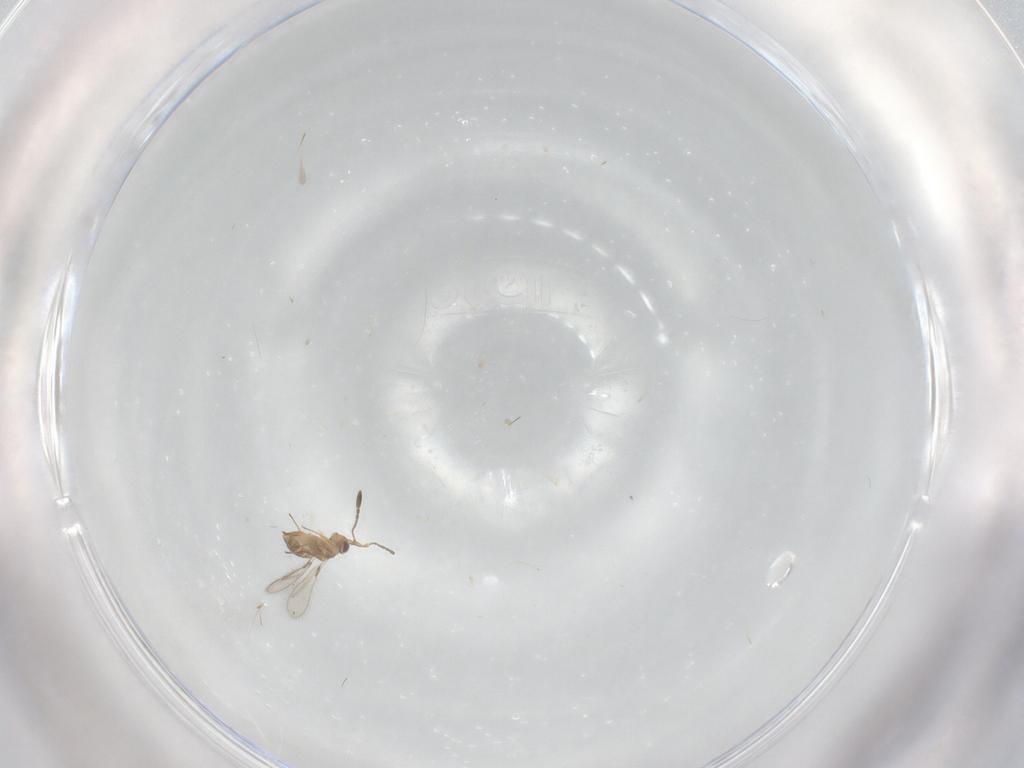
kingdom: Animalia
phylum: Arthropoda
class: Insecta
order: Hymenoptera
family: Mymaridae
